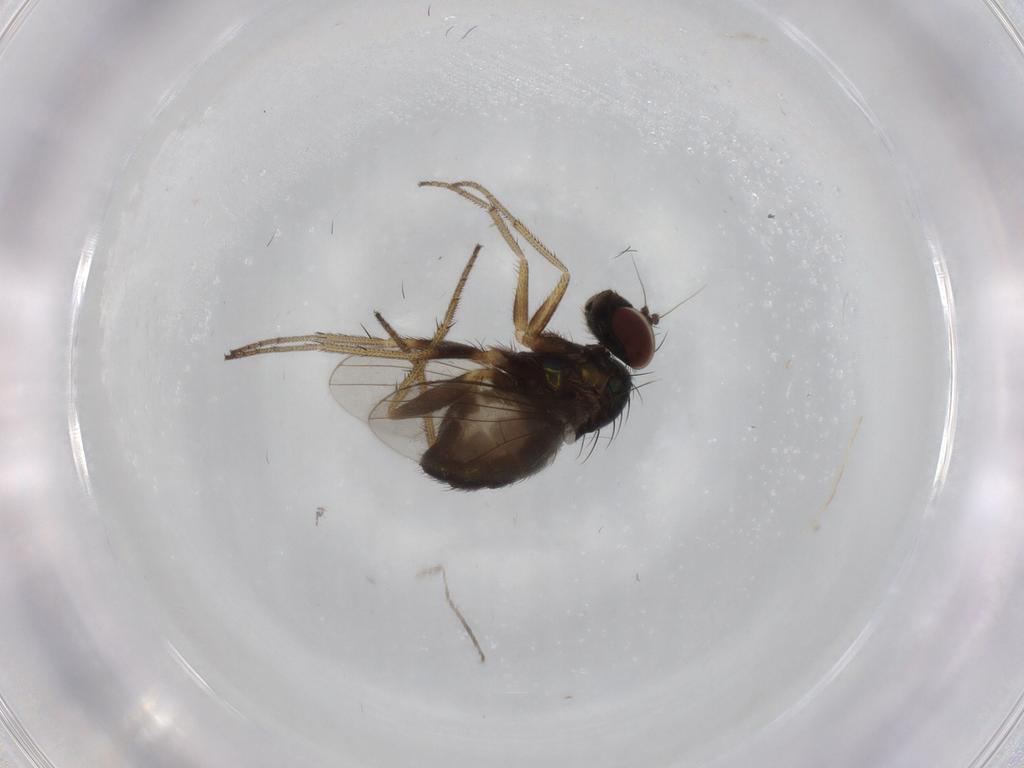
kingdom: Animalia
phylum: Arthropoda
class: Insecta
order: Diptera
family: Dolichopodidae
